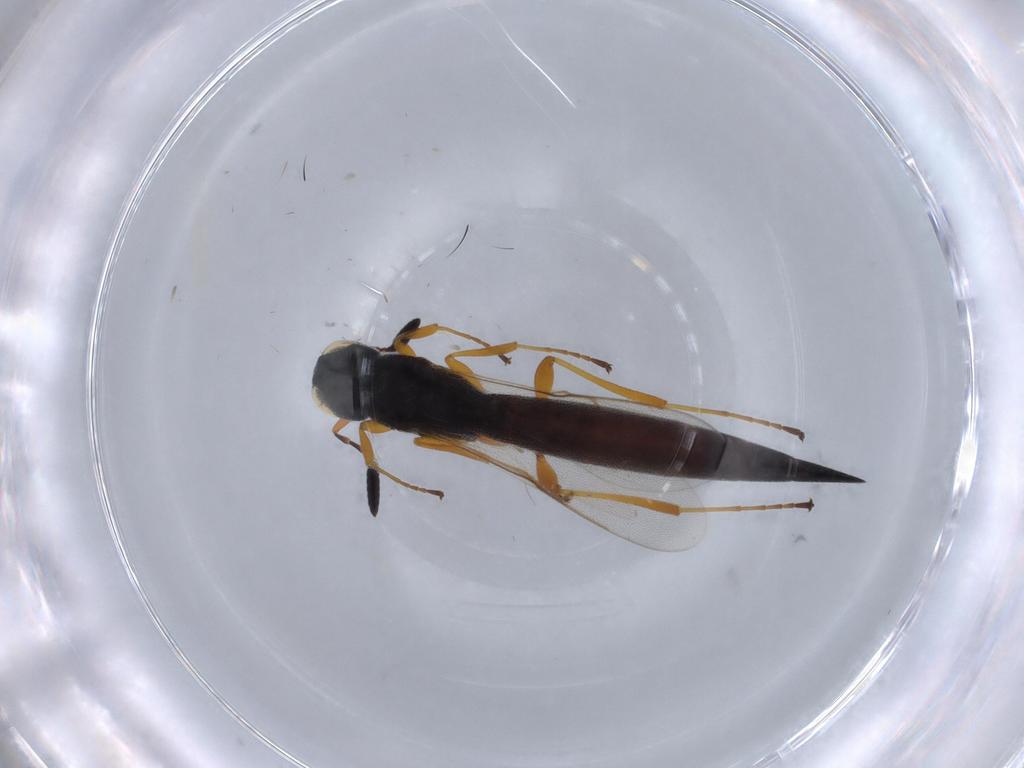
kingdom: Animalia
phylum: Arthropoda
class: Insecta
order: Hymenoptera
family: Scelionidae
